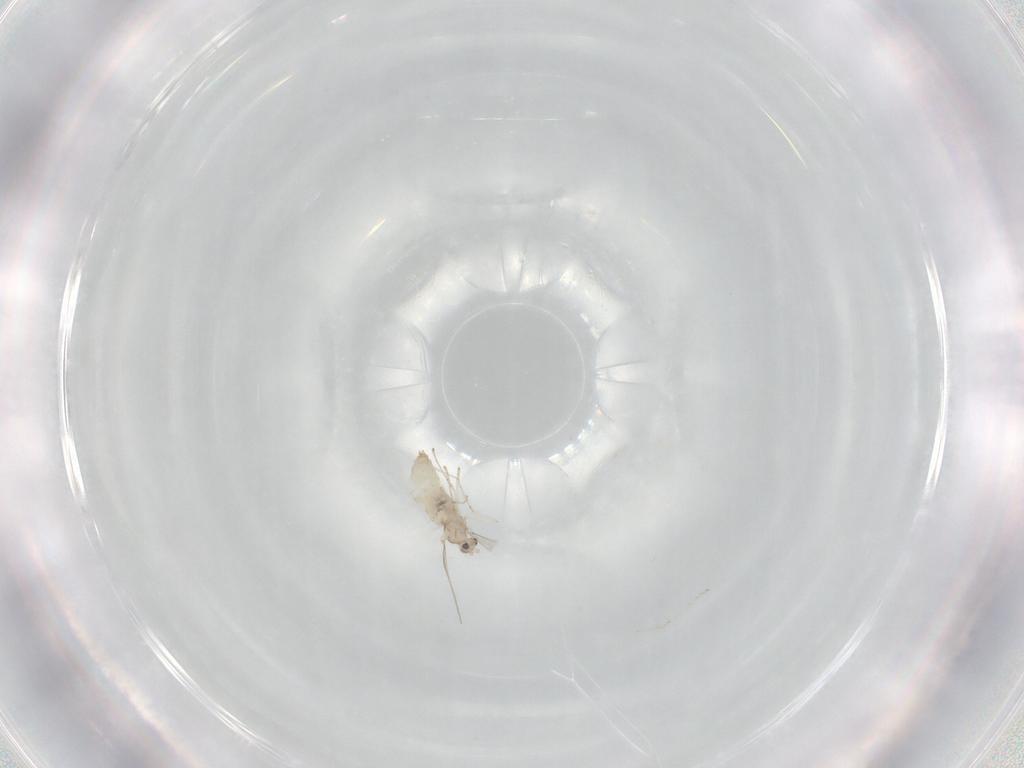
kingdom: Animalia
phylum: Arthropoda
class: Insecta
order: Diptera
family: Cecidomyiidae
